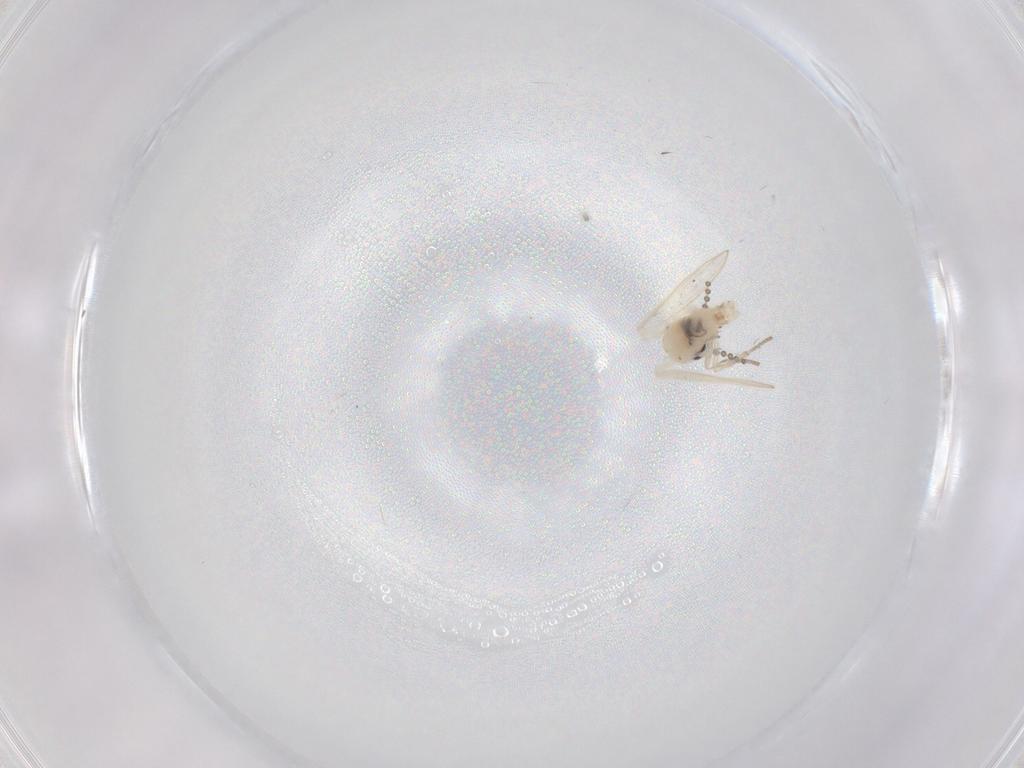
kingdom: Animalia
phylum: Arthropoda
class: Insecta
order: Diptera
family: Psychodidae
